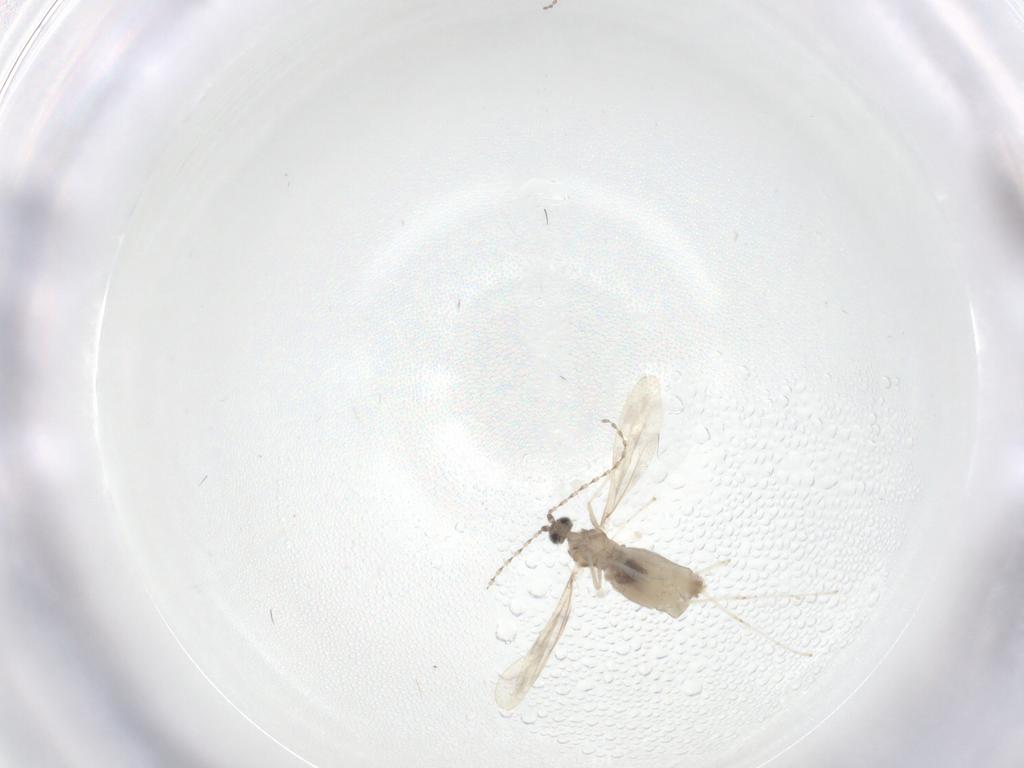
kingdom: Animalia
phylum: Arthropoda
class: Insecta
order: Diptera
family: Cecidomyiidae
